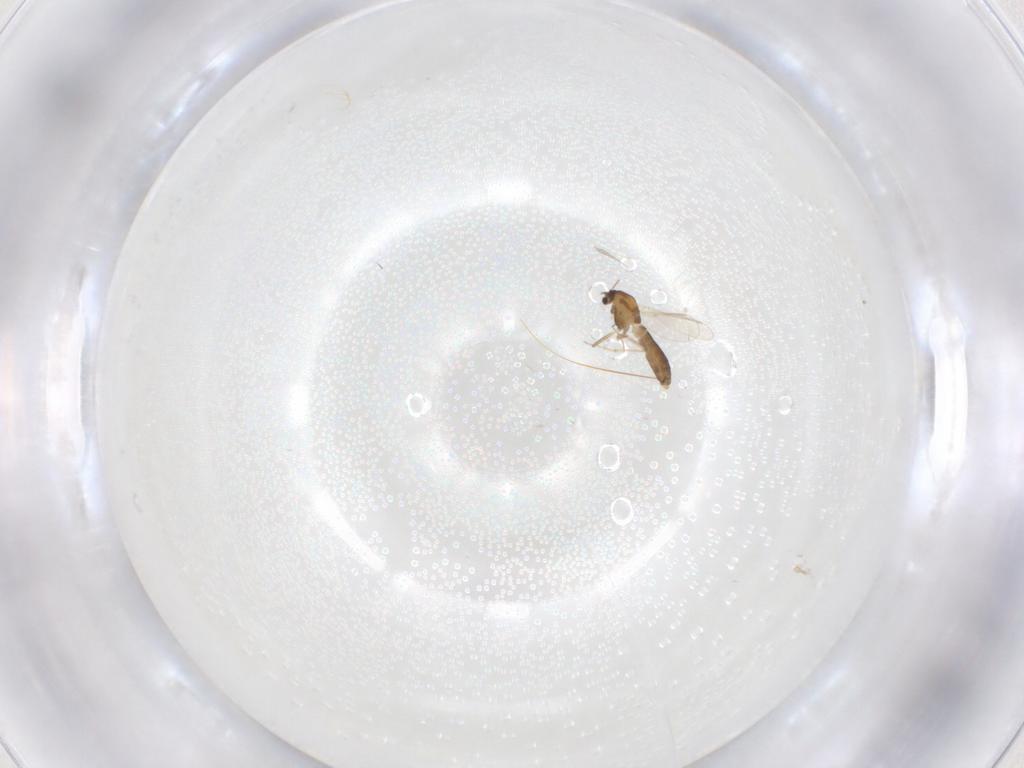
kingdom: Animalia
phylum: Arthropoda
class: Insecta
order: Diptera
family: Chironomidae
